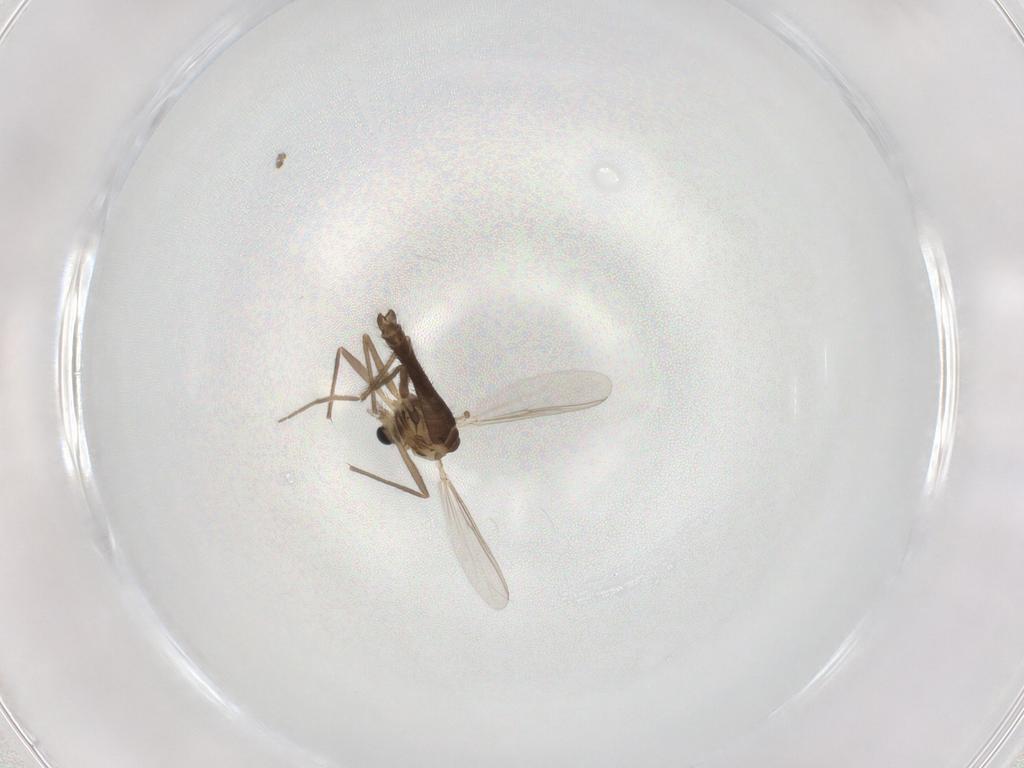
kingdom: Animalia
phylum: Arthropoda
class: Insecta
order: Diptera
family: Chironomidae
